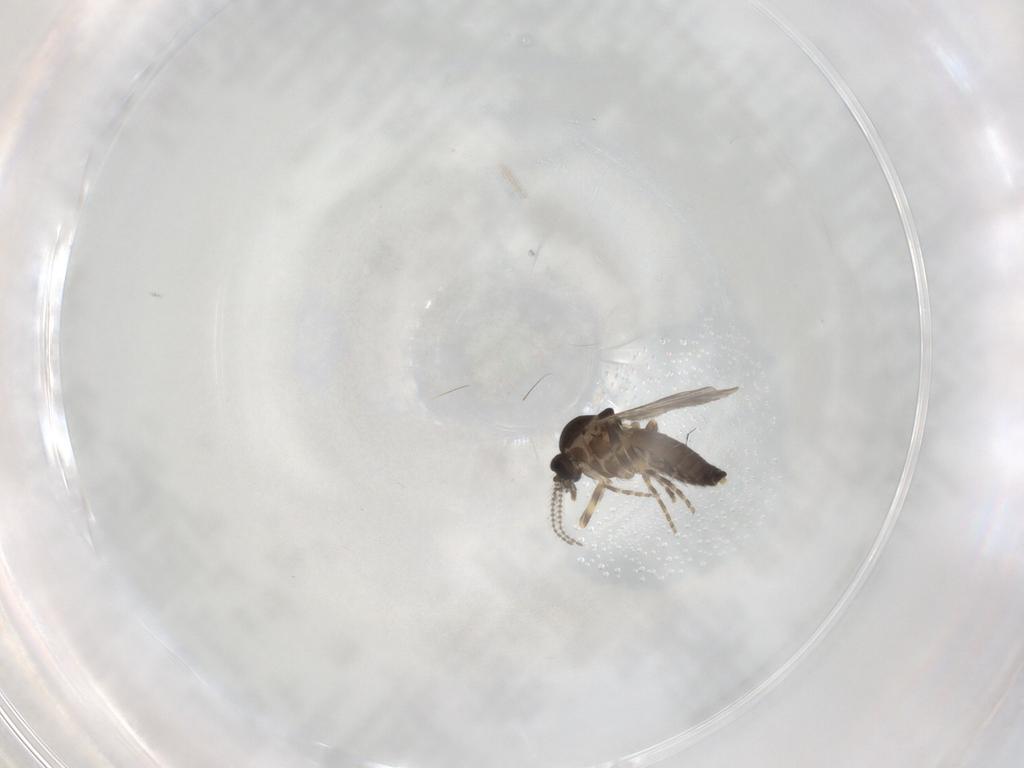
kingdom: Animalia
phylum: Arthropoda
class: Insecta
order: Diptera
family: Ceratopogonidae
